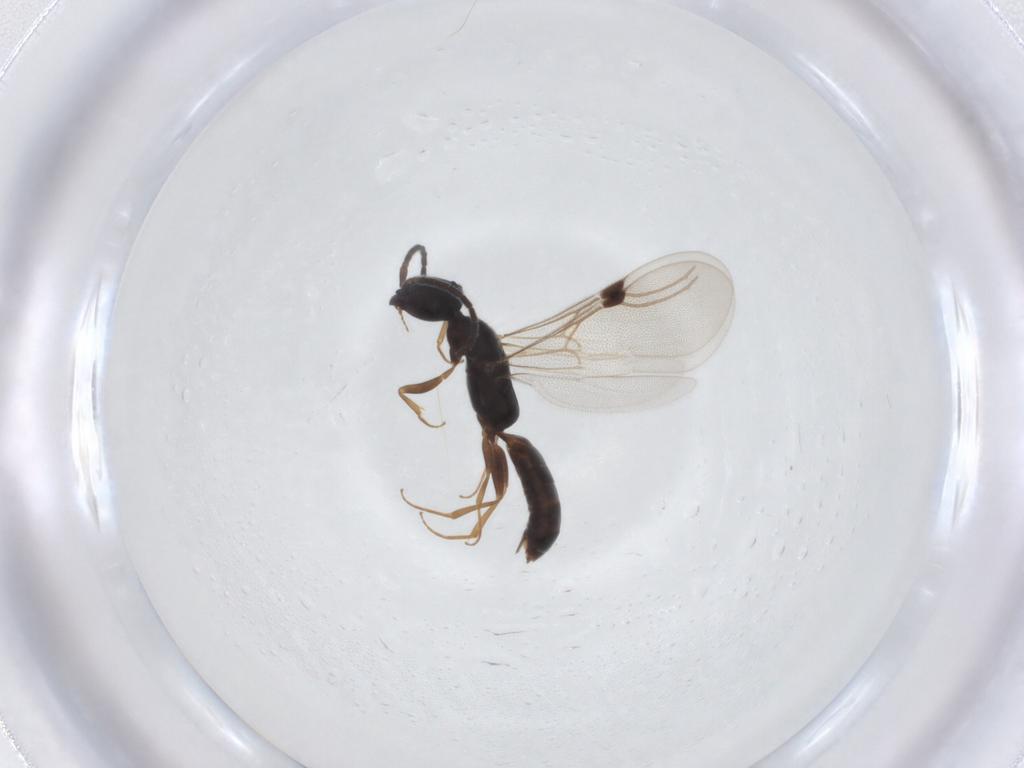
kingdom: Animalia
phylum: Arthropoda
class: Insecta
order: Hymenoptera
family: Bethylidae
